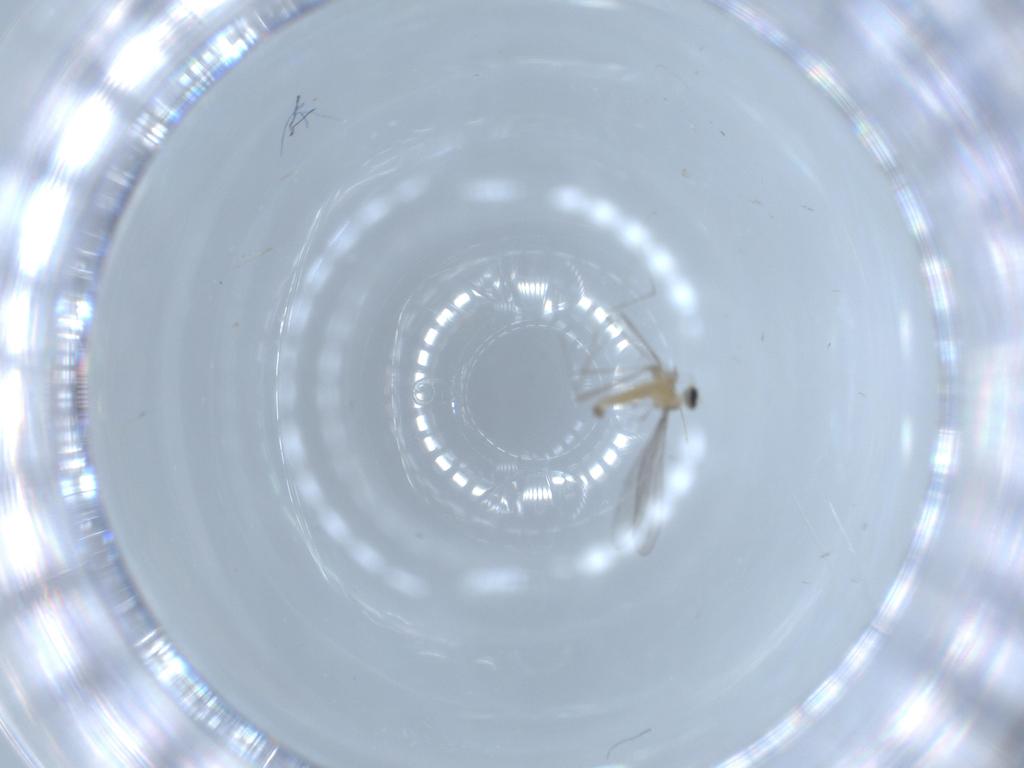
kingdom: Animalia
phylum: Arthropoda
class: Insecta
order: Diptera
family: Cecidomyiidae
